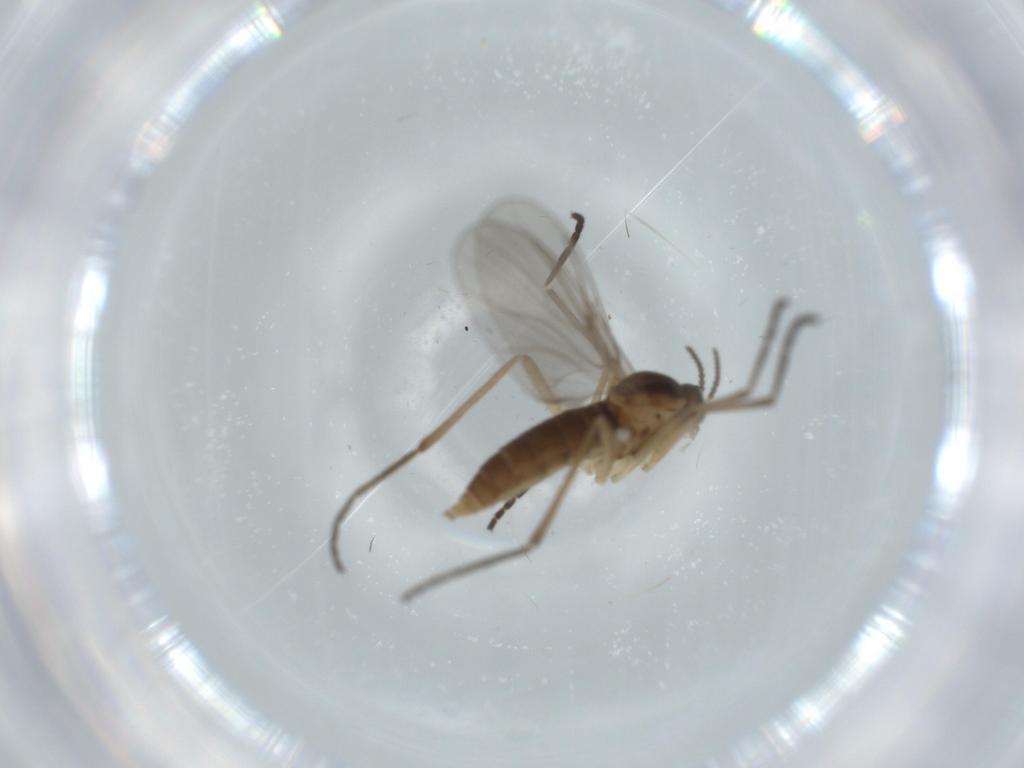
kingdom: Animalia
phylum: Arthropoda
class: Insecta
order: Diptera
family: Cecidomyiidae
